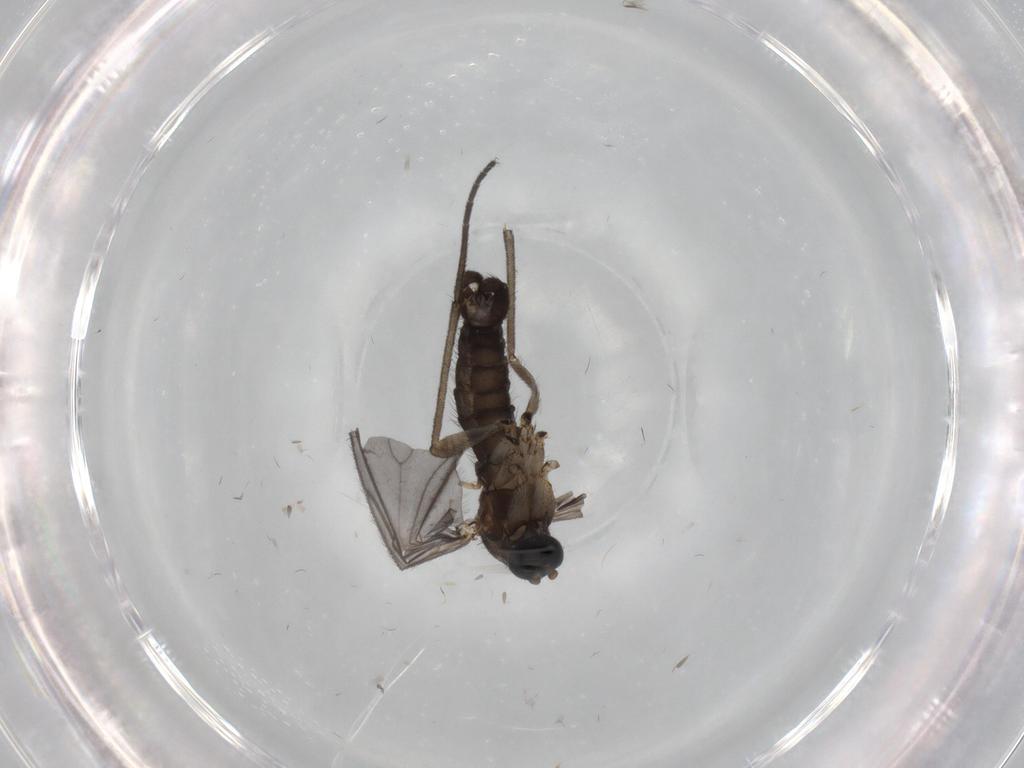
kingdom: Animalia
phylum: Arthropoda
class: Insecta
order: Diptera
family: Sciaridae
